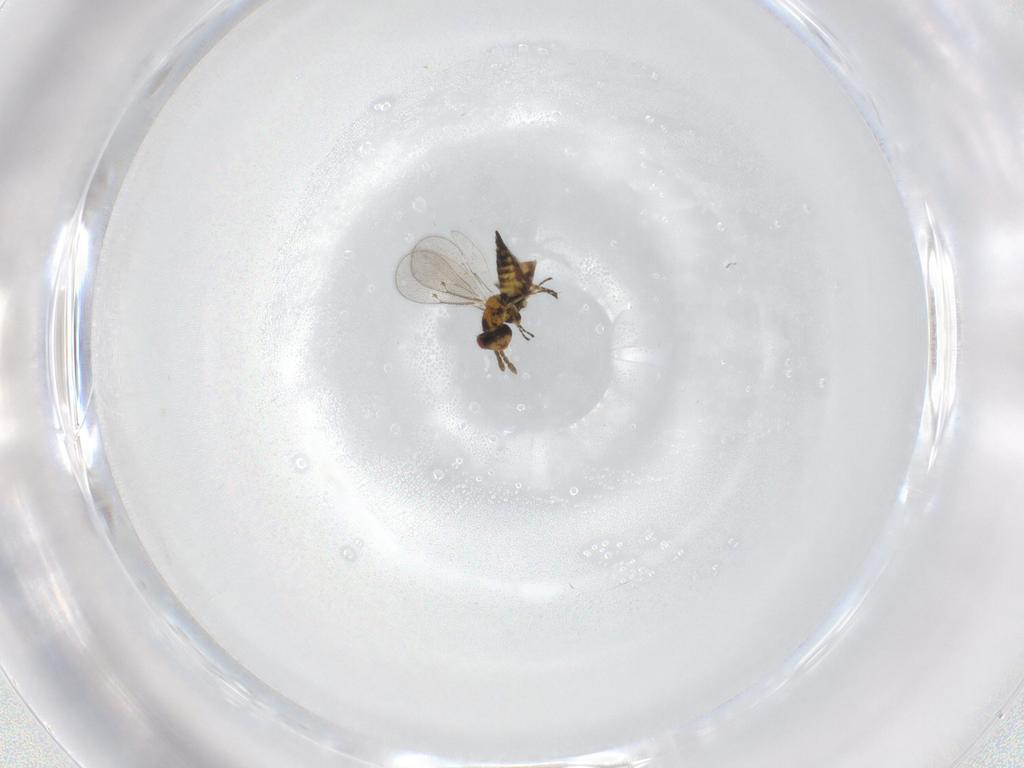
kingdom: Animalia
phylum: Arthropoda
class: Insecta
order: Hymenoptera
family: Eulophidae
